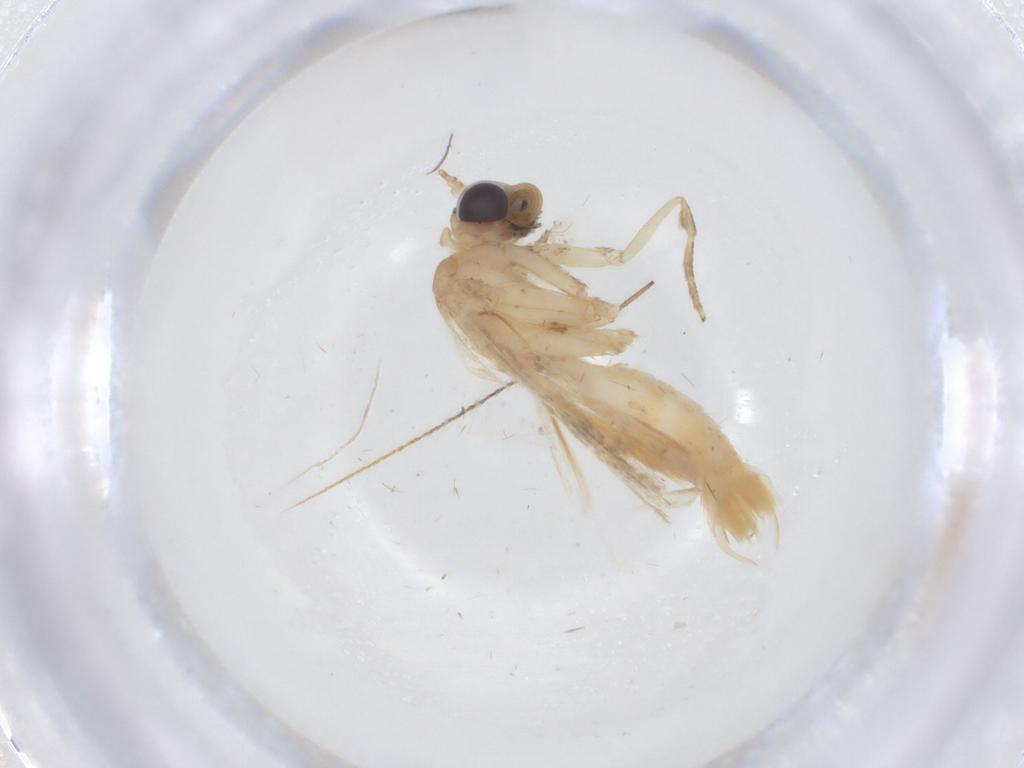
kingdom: Animalia
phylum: Arthropoda
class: Insecta
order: Lepidoptera
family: Erebidae
